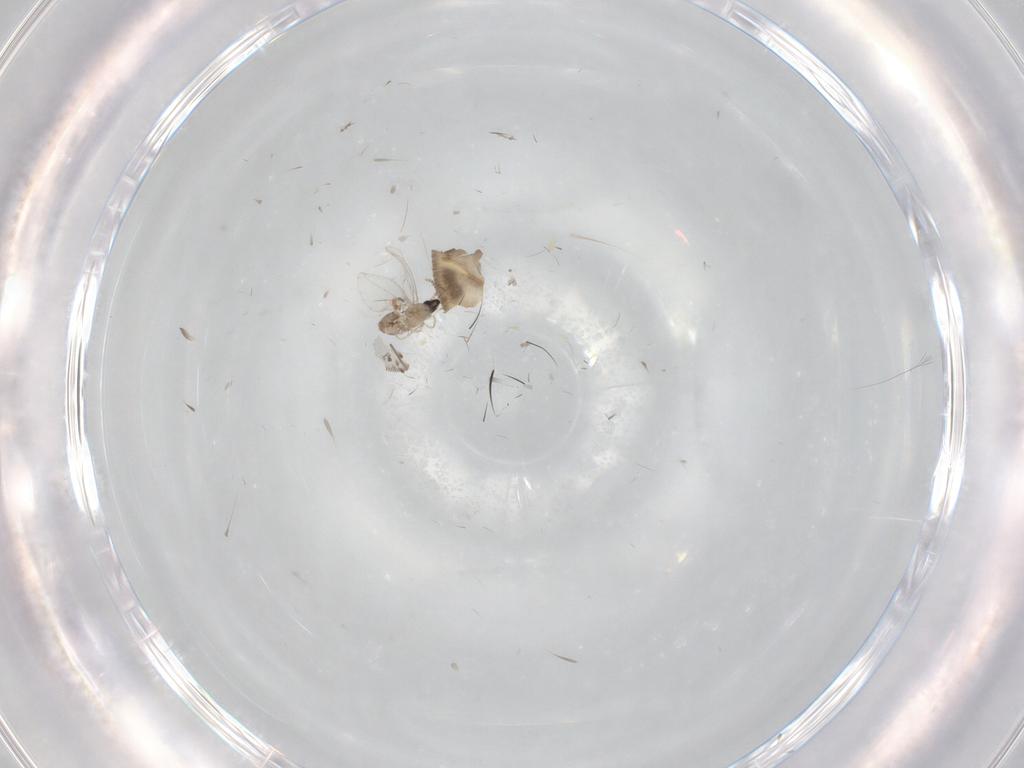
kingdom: Animalia
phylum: Arthropoda
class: Insecta
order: Diptera
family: Cecidomyiidae
